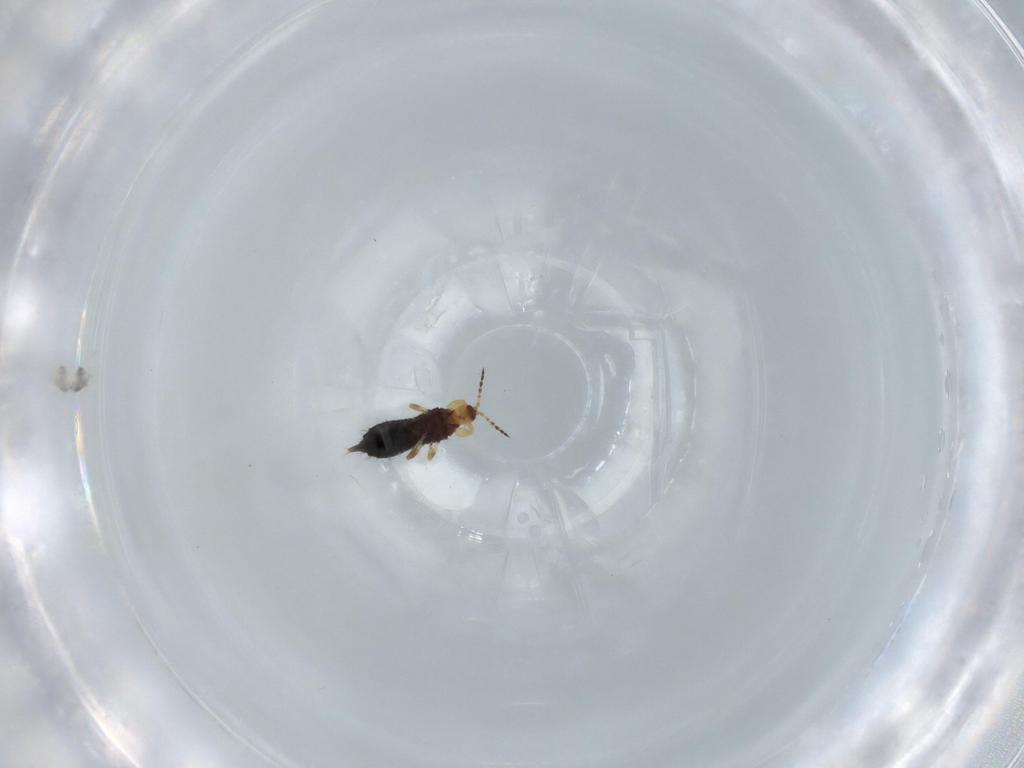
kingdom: Animalia
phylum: Arthropoda
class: Insecta
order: Thysanoptera
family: Phlaeothripidae
